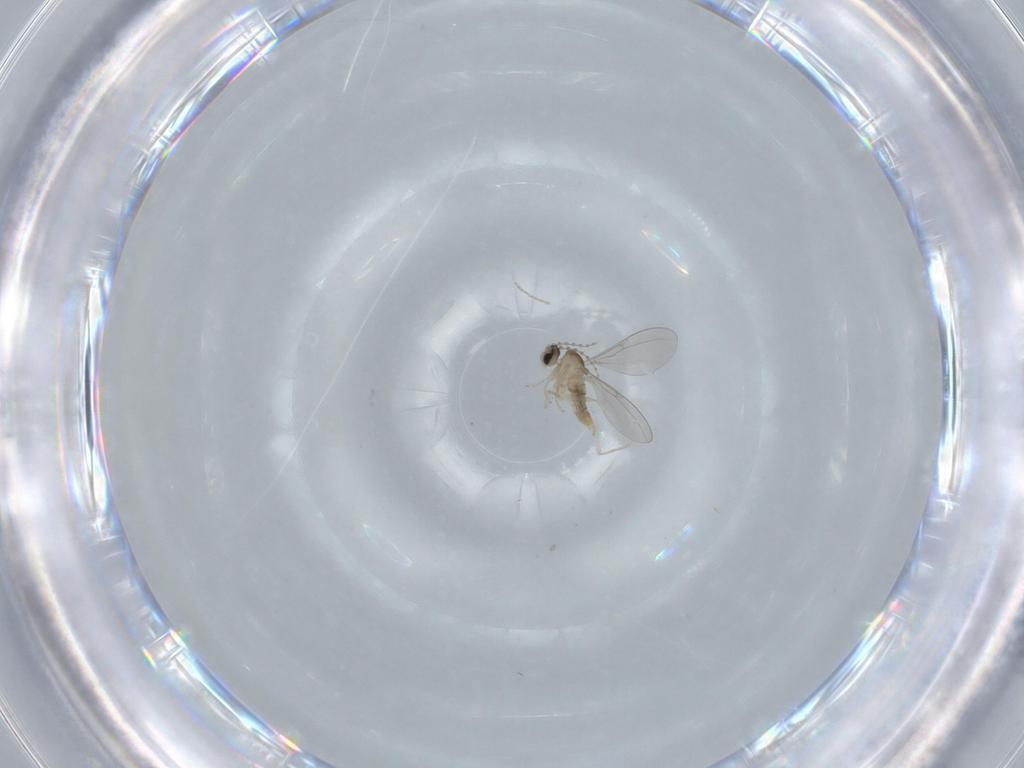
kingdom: Animalia
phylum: Arthropoda
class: Insecta
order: Diptera
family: Cecidomyiidae
